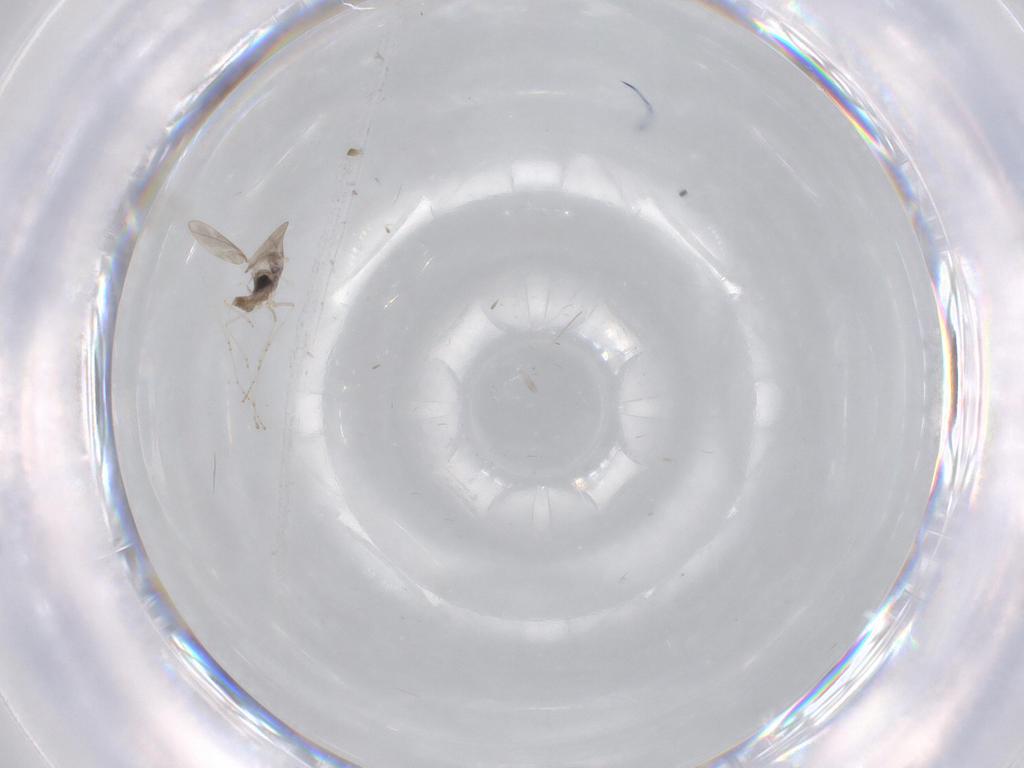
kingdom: Animalia
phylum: Arthropoda
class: Insecta
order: Diptera
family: Cecidomyiidae
